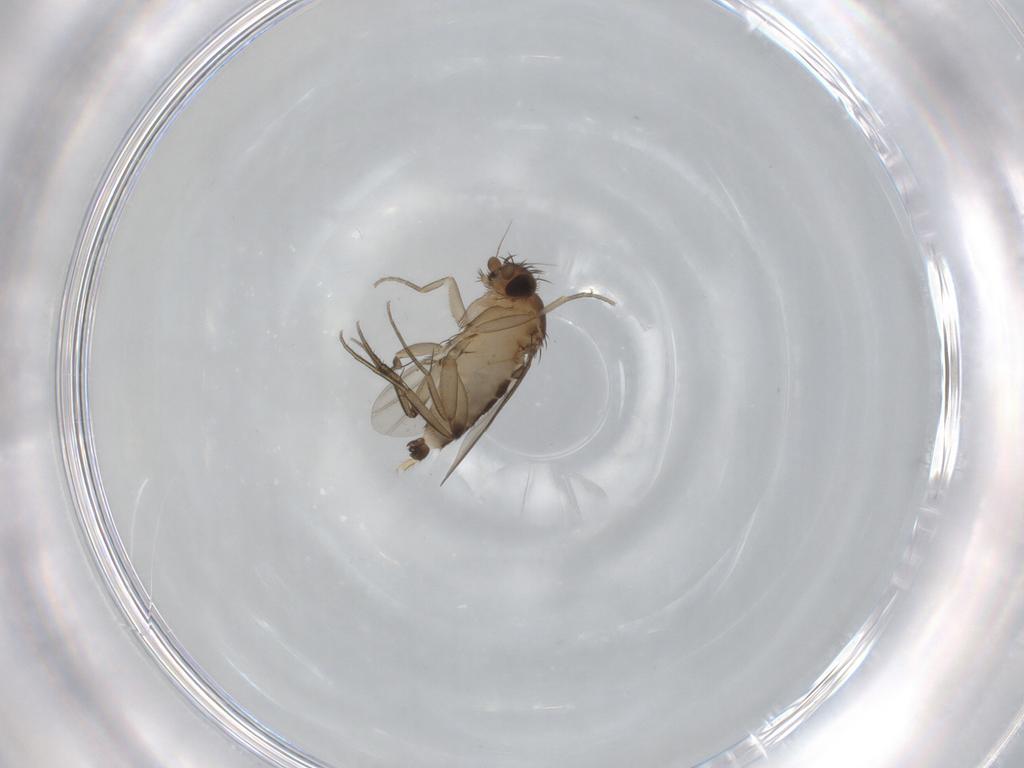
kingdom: Animalia
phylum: Arthropoda
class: Insecta
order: Diptera
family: Phoridae
